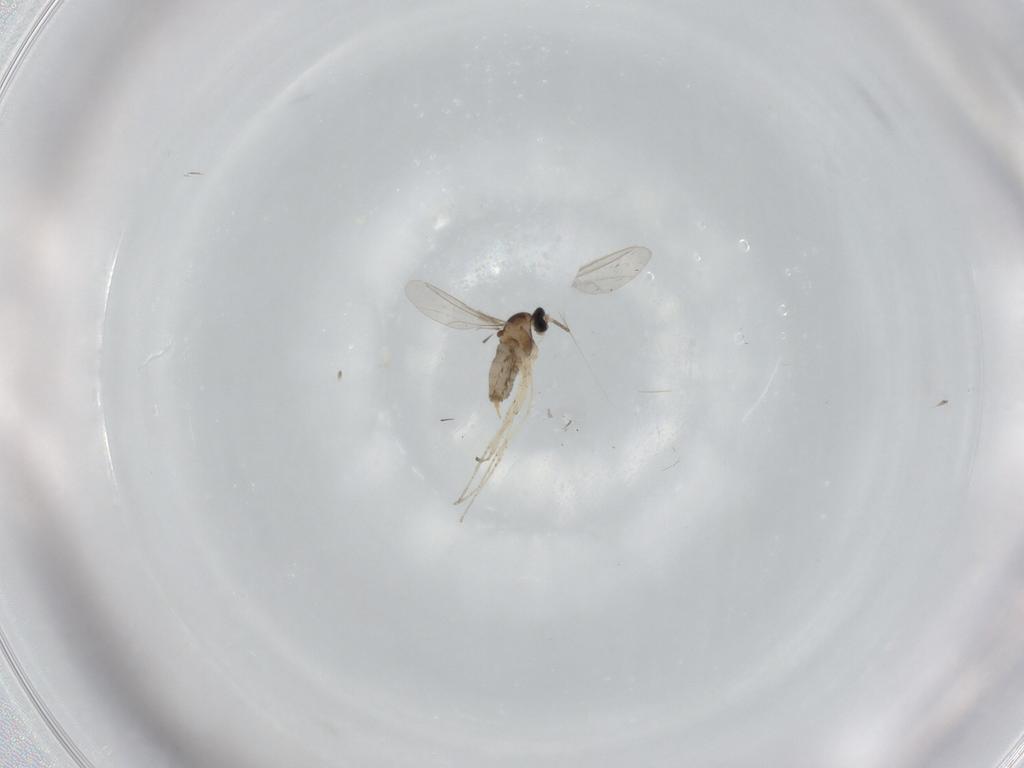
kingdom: Animalia
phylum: Arthropoda
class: Insecta
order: Diptera
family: Cecidomyiidae
